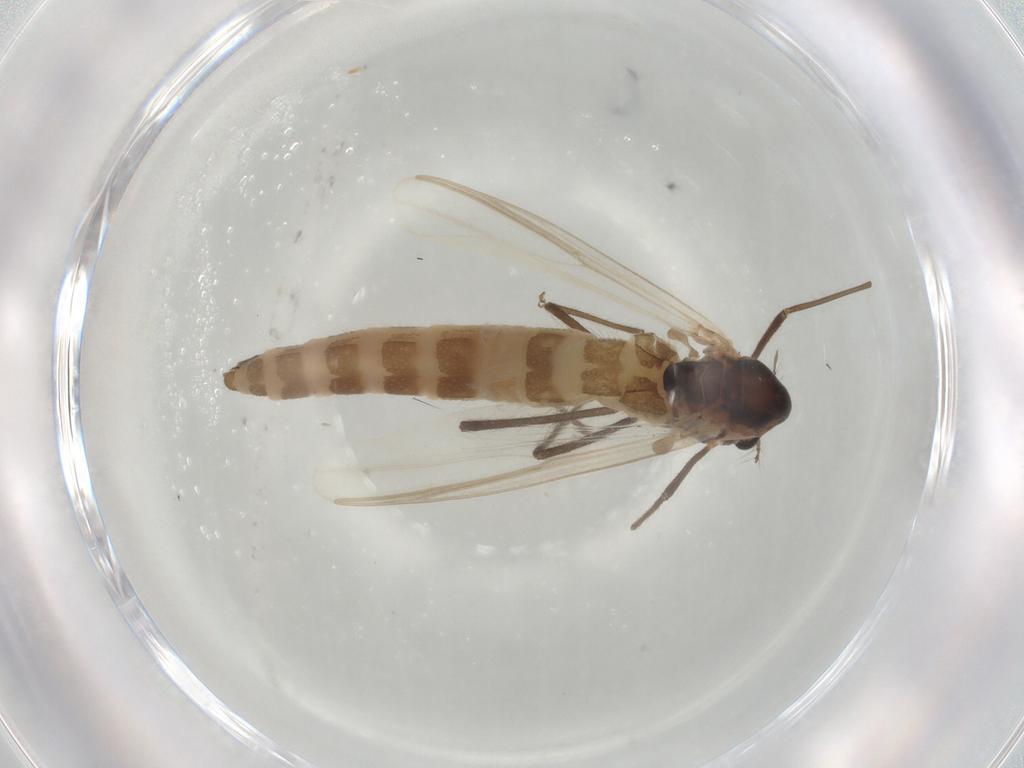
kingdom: Animalia
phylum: Arthropoda
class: Insecta
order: Diptera
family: Chironomidae
